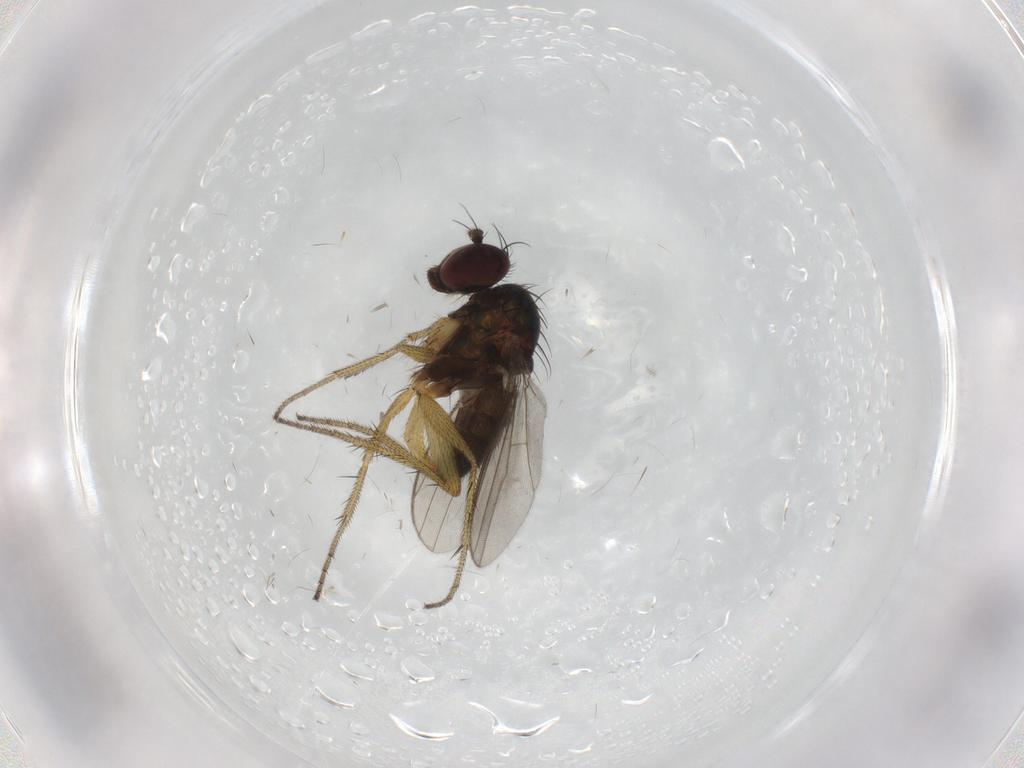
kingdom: Animalia
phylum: Arthropoda
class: Insecta
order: Diptera
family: Dolichopodidae
